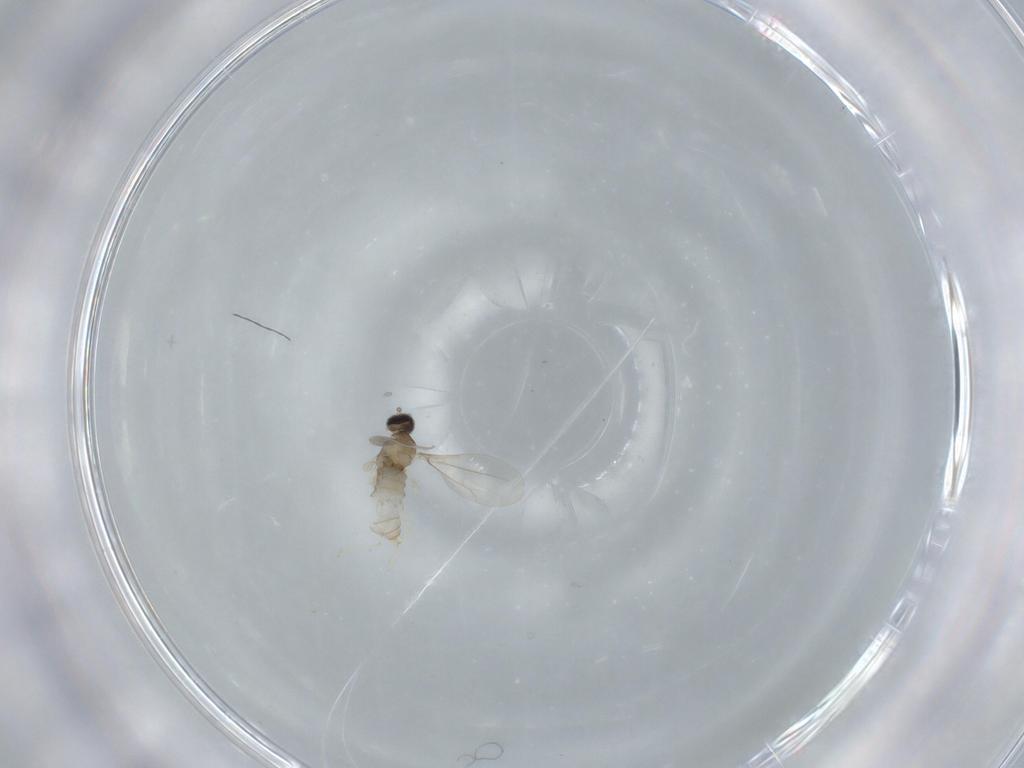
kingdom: Animalia
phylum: Arthropoda
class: Insecta
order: Diptera
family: Cecidomyiidae
